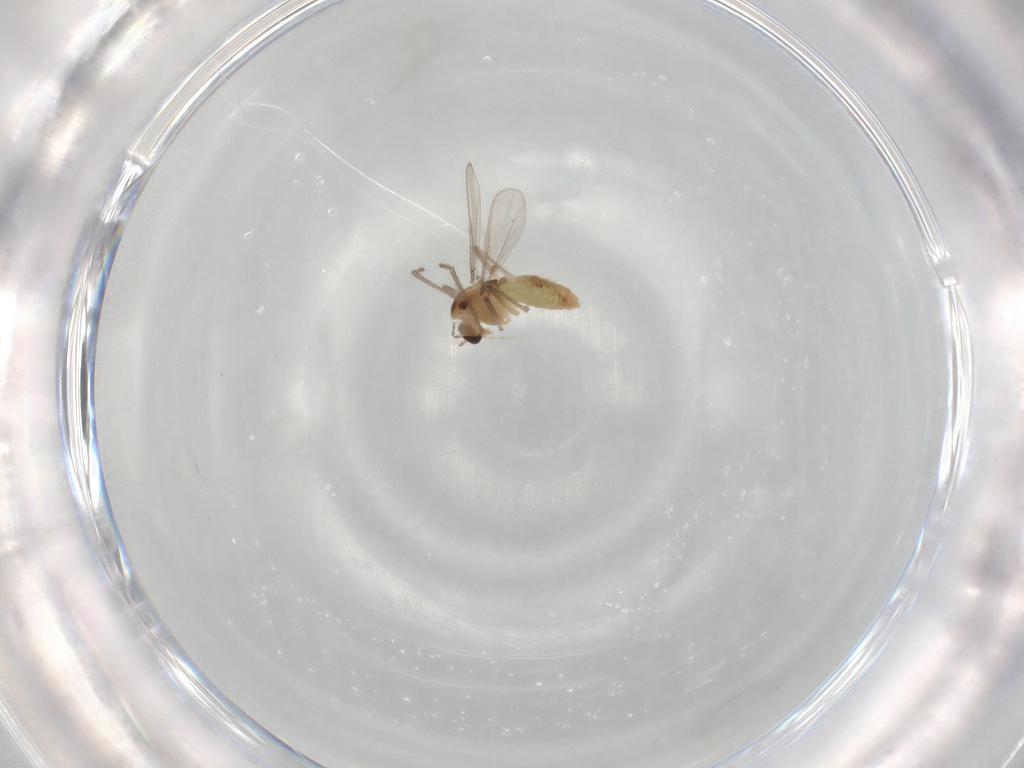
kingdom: Animalia
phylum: Arthropoda
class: Insecta
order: Diptera
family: Chironomidae
